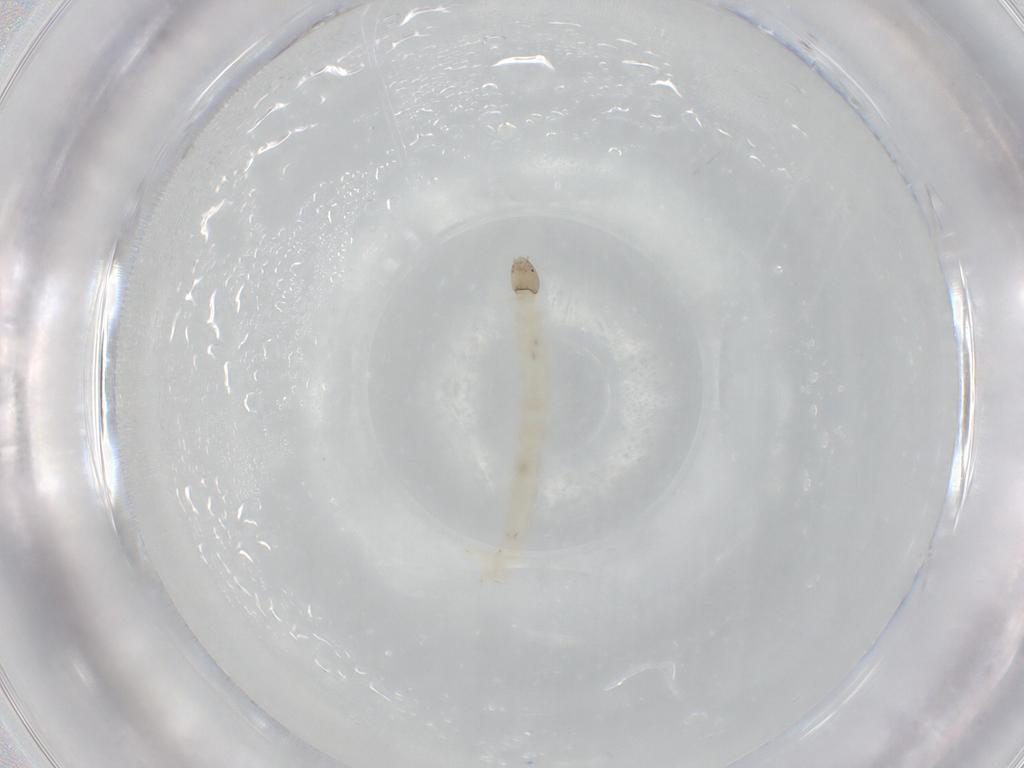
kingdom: Animalia
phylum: Arthropoda
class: Insecta
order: Diptera
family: Chironomidae
